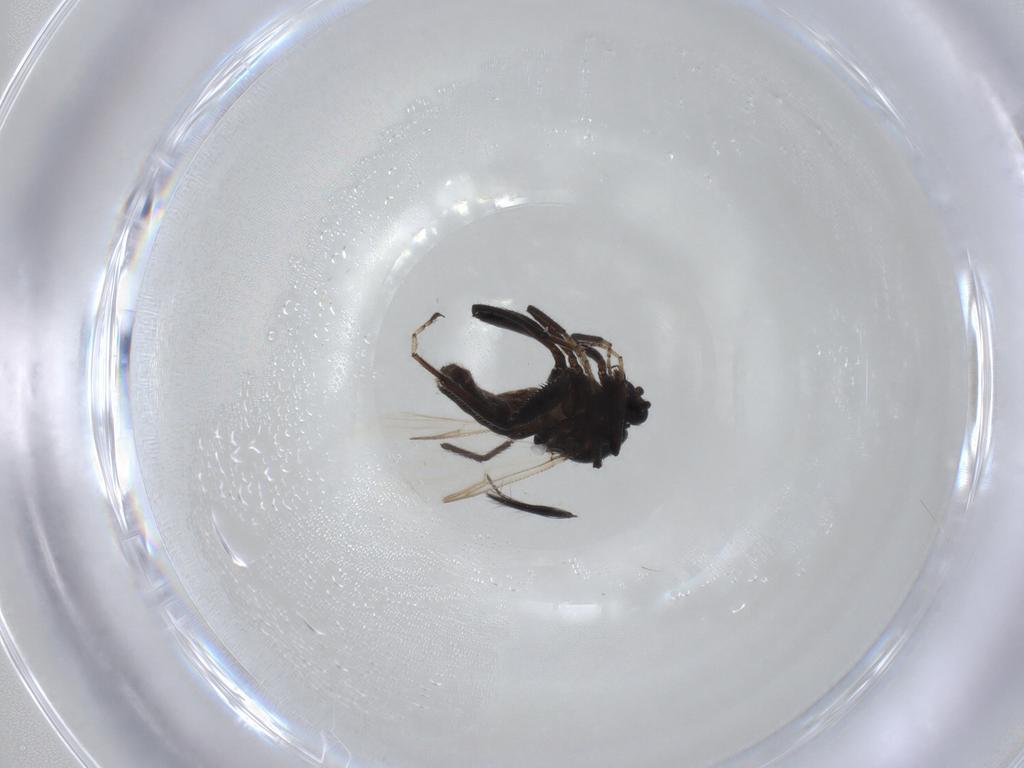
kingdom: Animalia
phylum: Arthropoda
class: Insecta
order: Diptera
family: Ceratopogonidae
